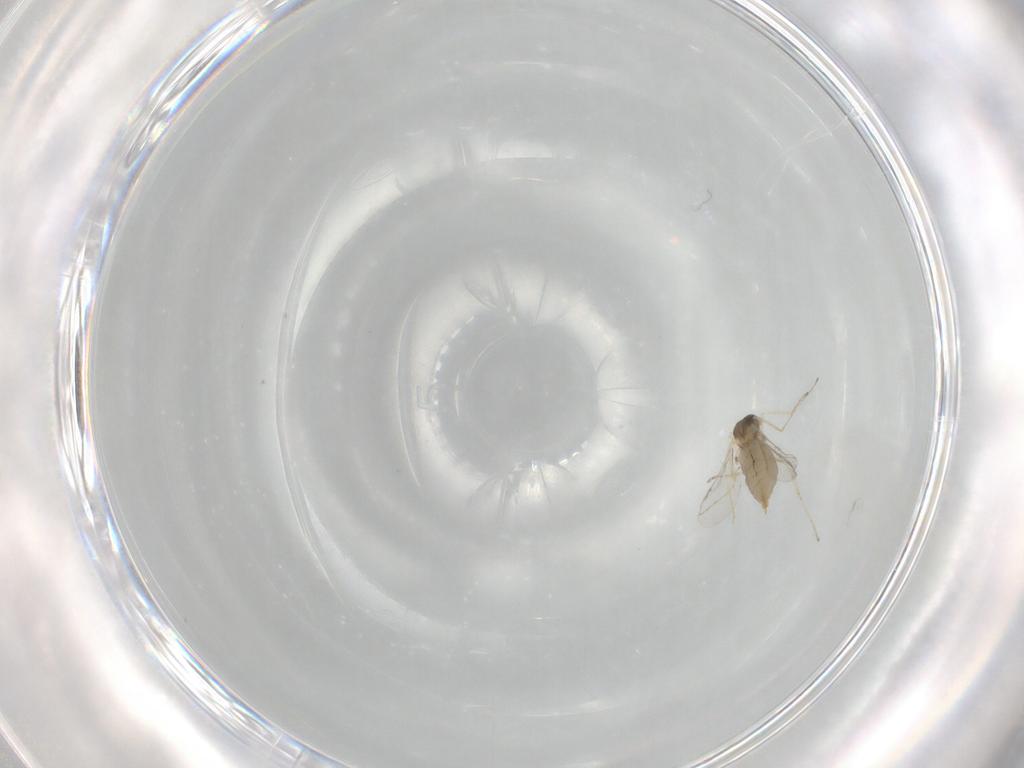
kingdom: Animalia
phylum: Arthropoda
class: Insecta
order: Diptera
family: Cecidomyiidae
